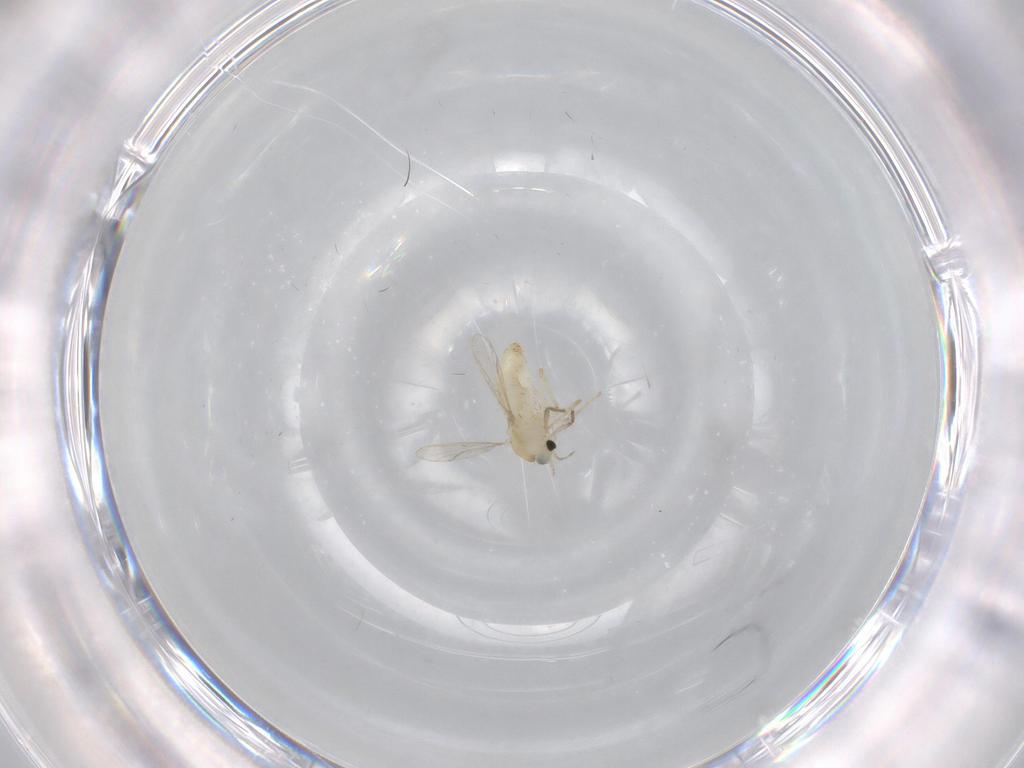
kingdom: Animalia
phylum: Arthropoda
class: Insecta
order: Diptera
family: Chironomidae
